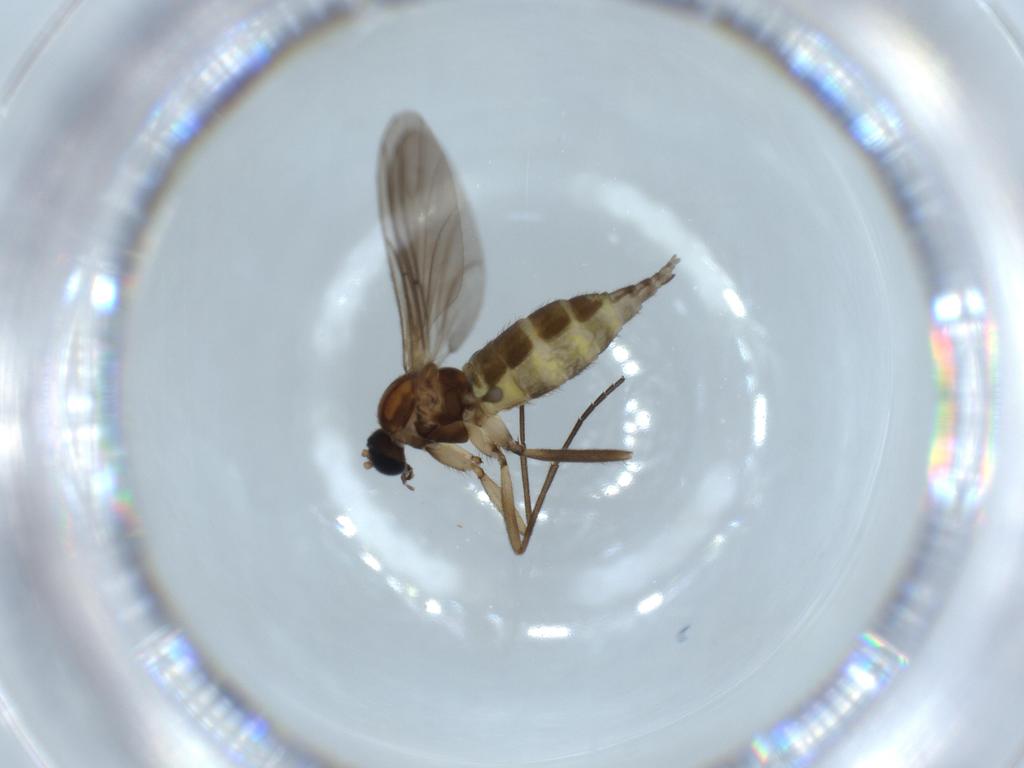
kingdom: Animalia
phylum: Arthropoda
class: Insecta
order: Diptera
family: Sciaridae
